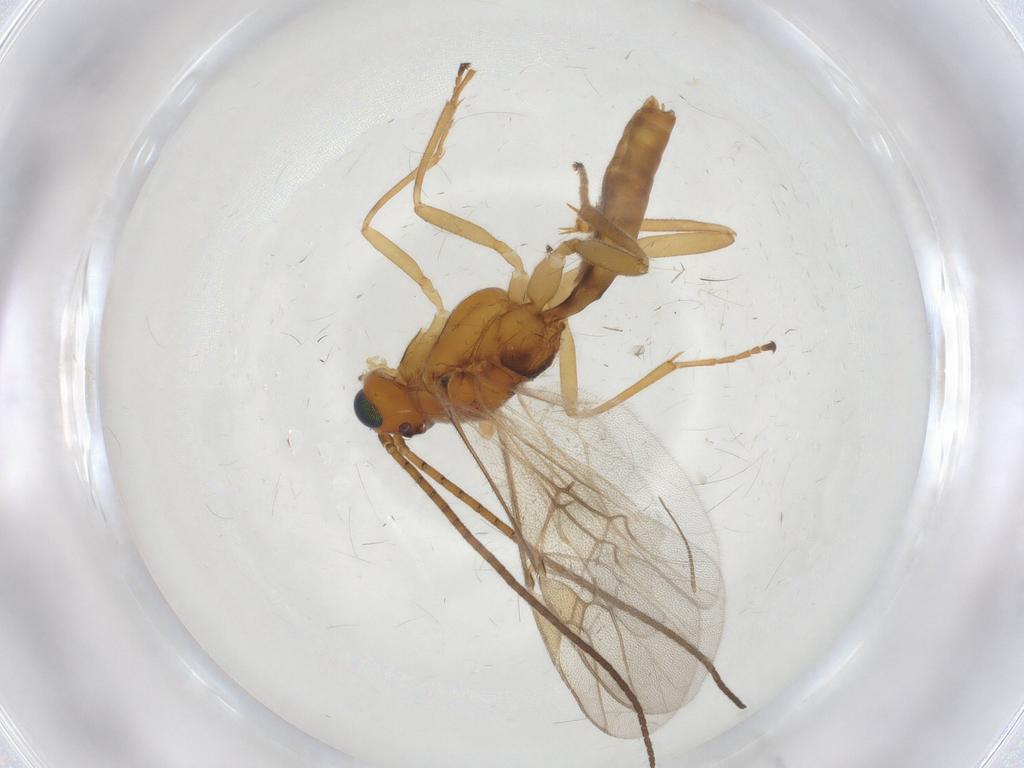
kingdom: Animalia
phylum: Arthropoda
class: Insecta
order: Hymenoptera
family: Braconidae
